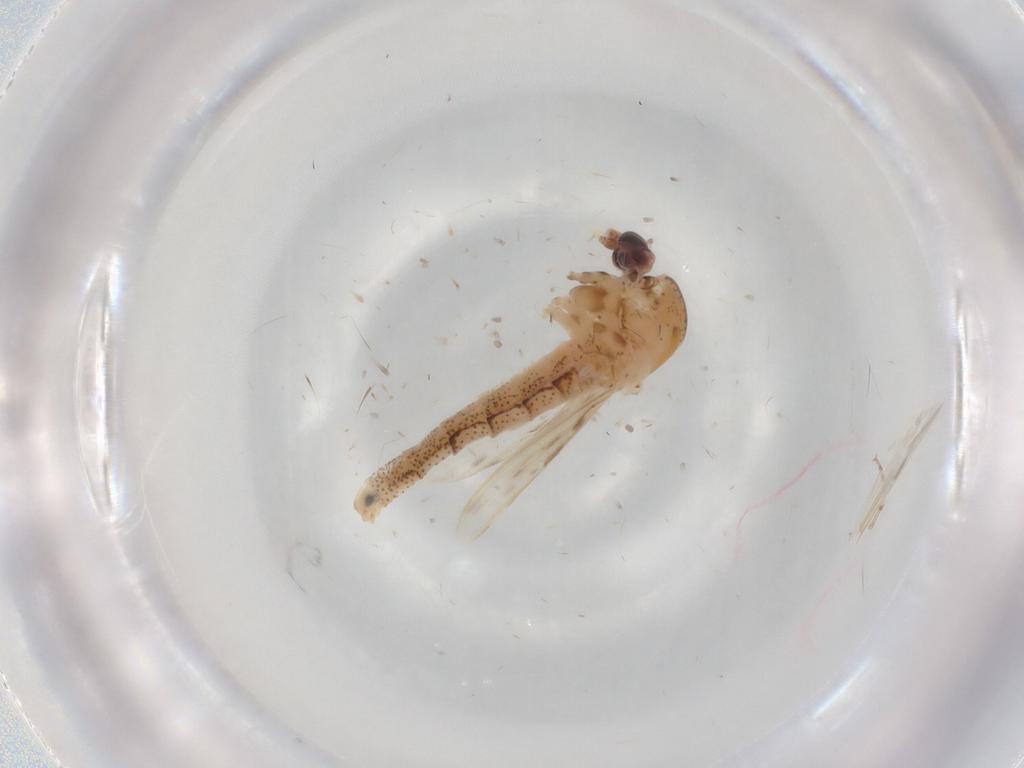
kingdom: Animalia
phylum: Arthropoda
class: Insecta
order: Diptera
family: Chaoboridae
